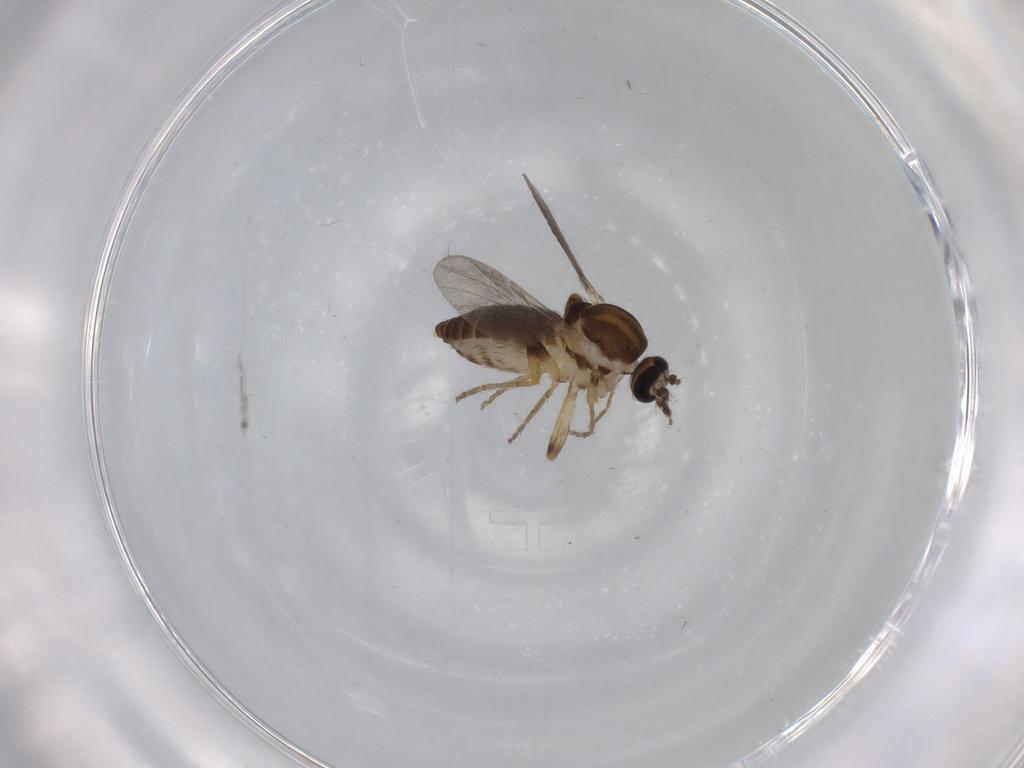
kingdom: Animalia
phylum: Arthropoda
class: Insecta
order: Diptera
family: Ceratopogonidae
